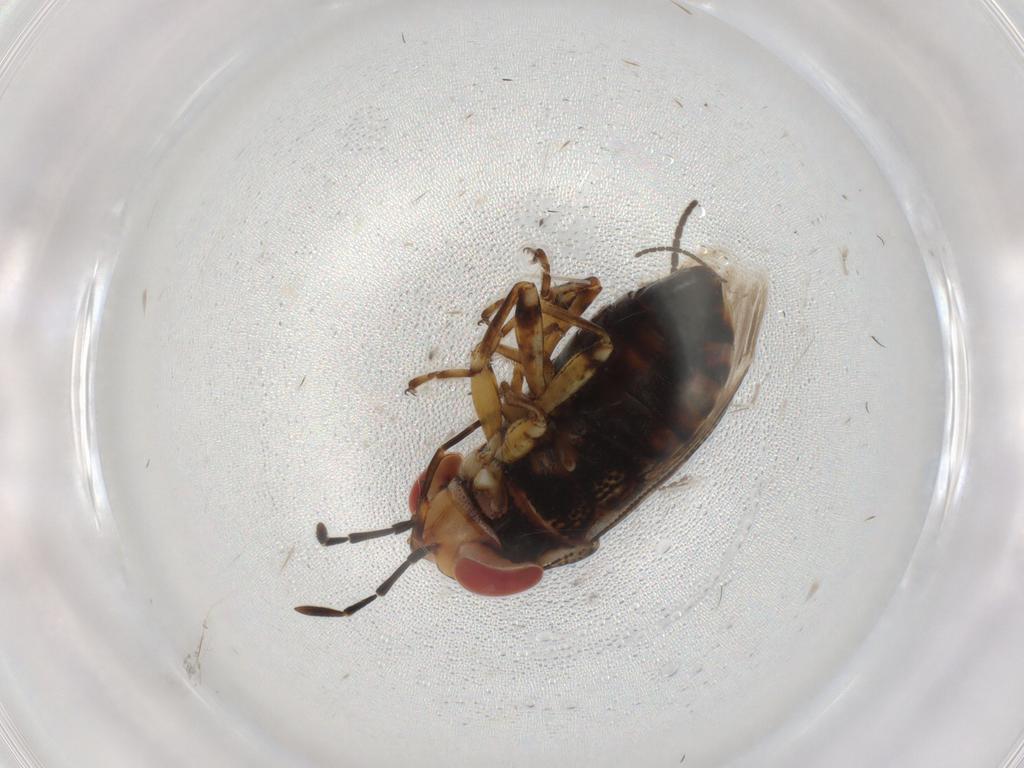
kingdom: Animalia
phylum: Arthropoda
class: Insecta
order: Hemiptera
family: Geocoridae
